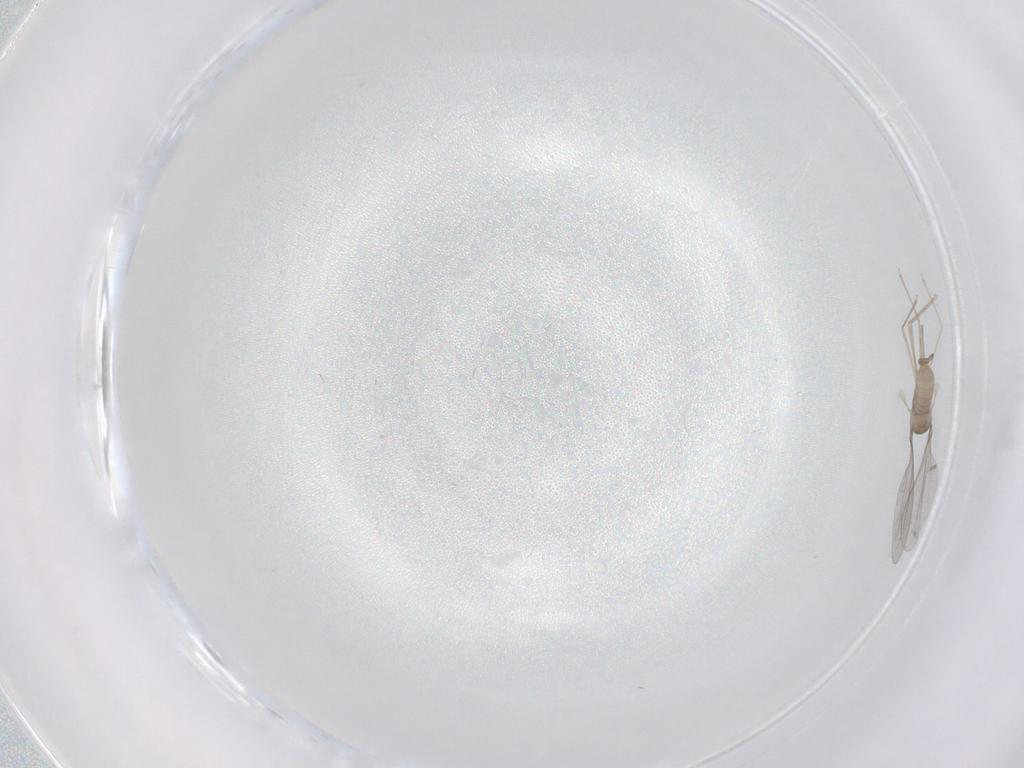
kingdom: Animalia
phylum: Arthropoda
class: Insecta
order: Diptera
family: Cecidomyiidae
